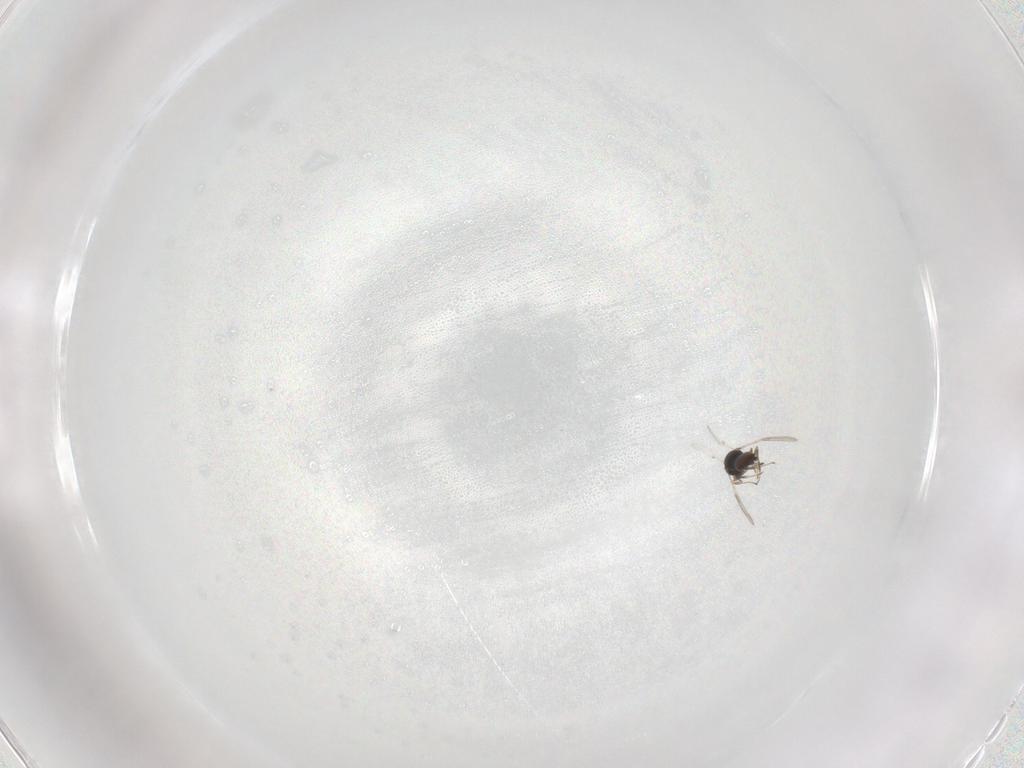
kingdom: Animalia
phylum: Arthropoda
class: Insecta
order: Hymenoptera
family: Scelionidae
